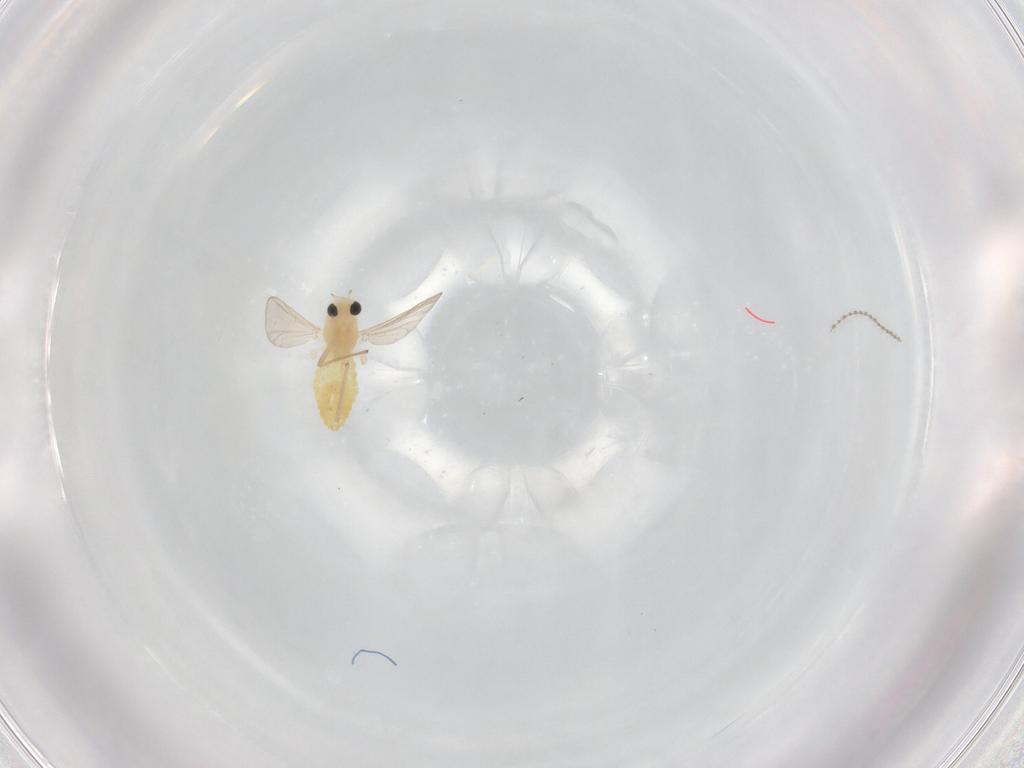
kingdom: Animalia
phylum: Arthropoda
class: Insecta
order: Diptera
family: Chironomidae
